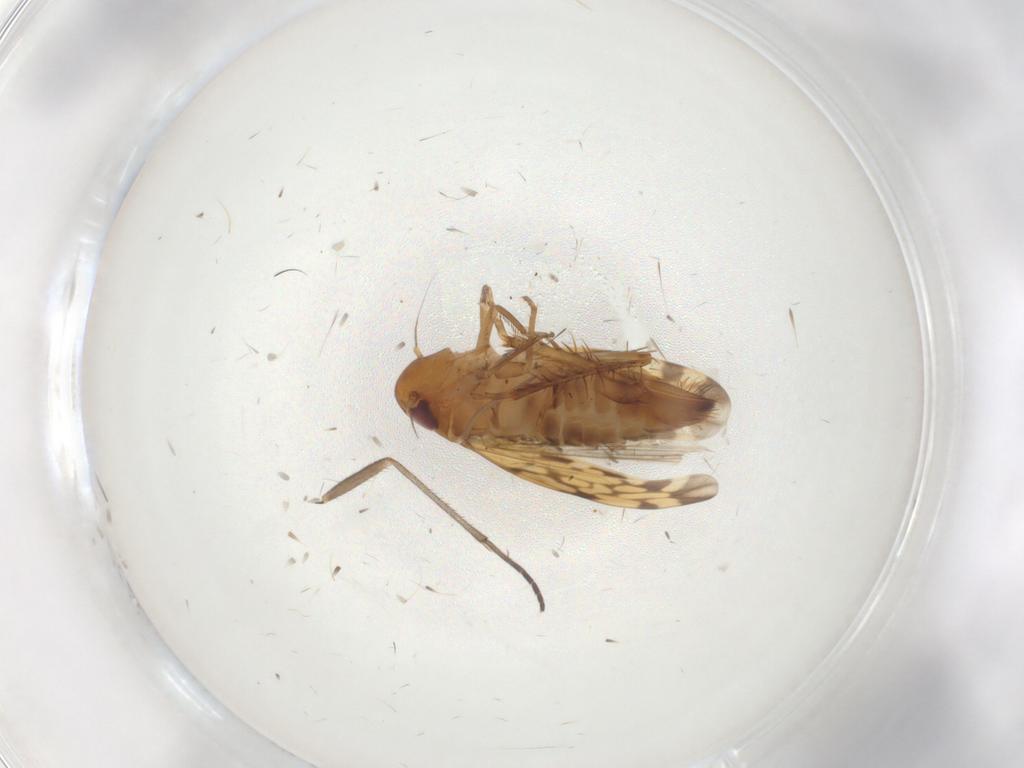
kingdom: Animalia
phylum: Arthropoda
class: Insecta
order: Hemiptera
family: Cicadellidae
